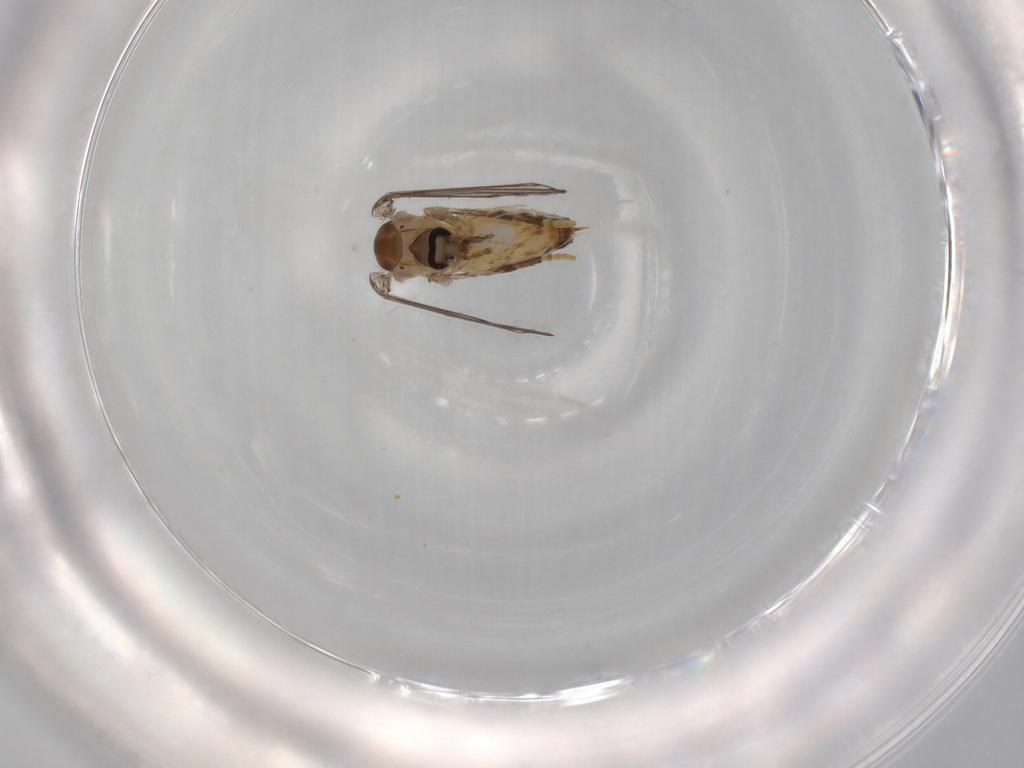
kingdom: Animalia
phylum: Arthropoda
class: Insecta
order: Diptera
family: Psychodidae
